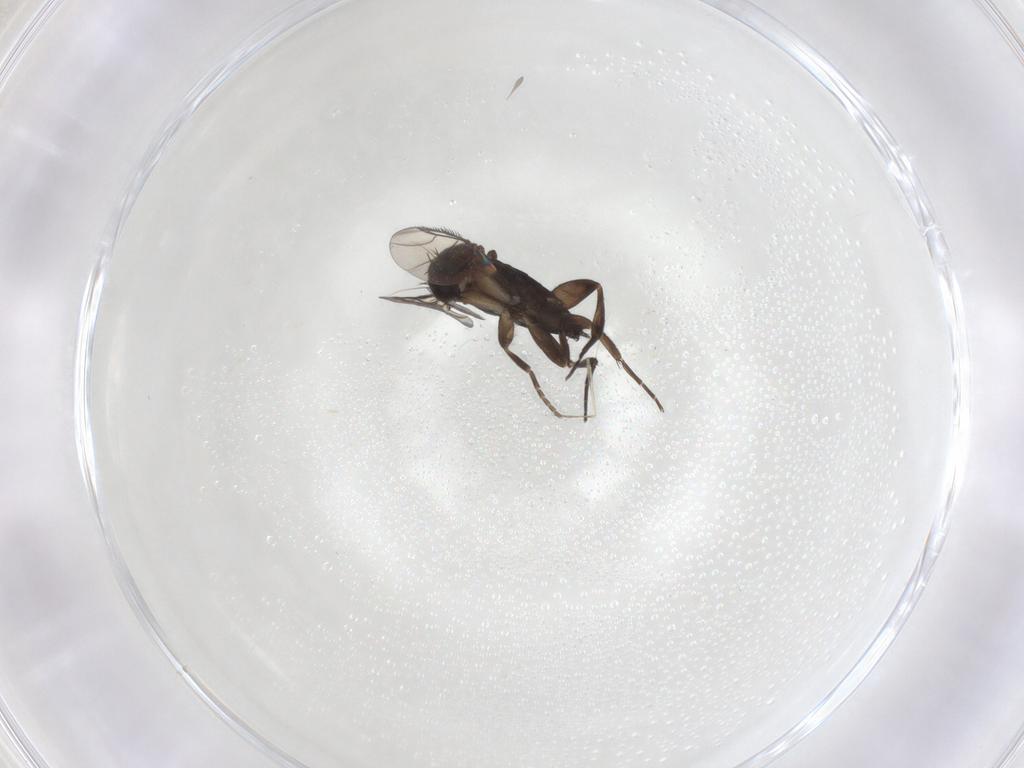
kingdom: Animalia
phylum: Arthropoda
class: Insecta
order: Diptera
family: Phoridae
